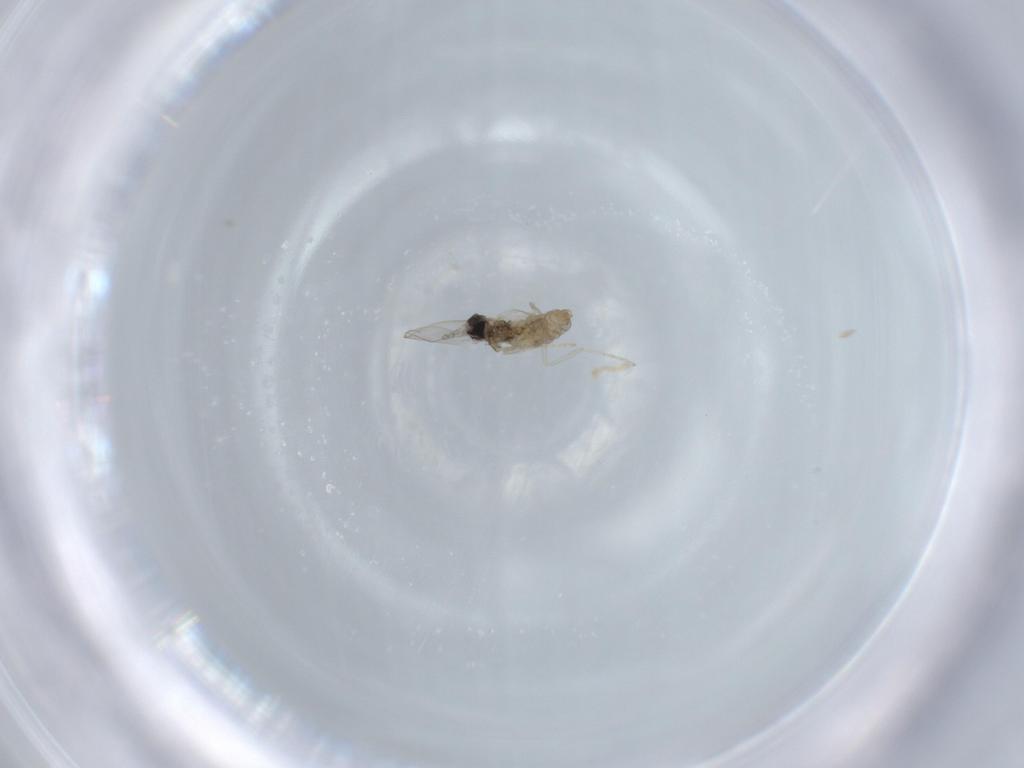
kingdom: Animalia
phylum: Arthropoda
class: Insecta
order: Diptera
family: Cecidomyiidae
